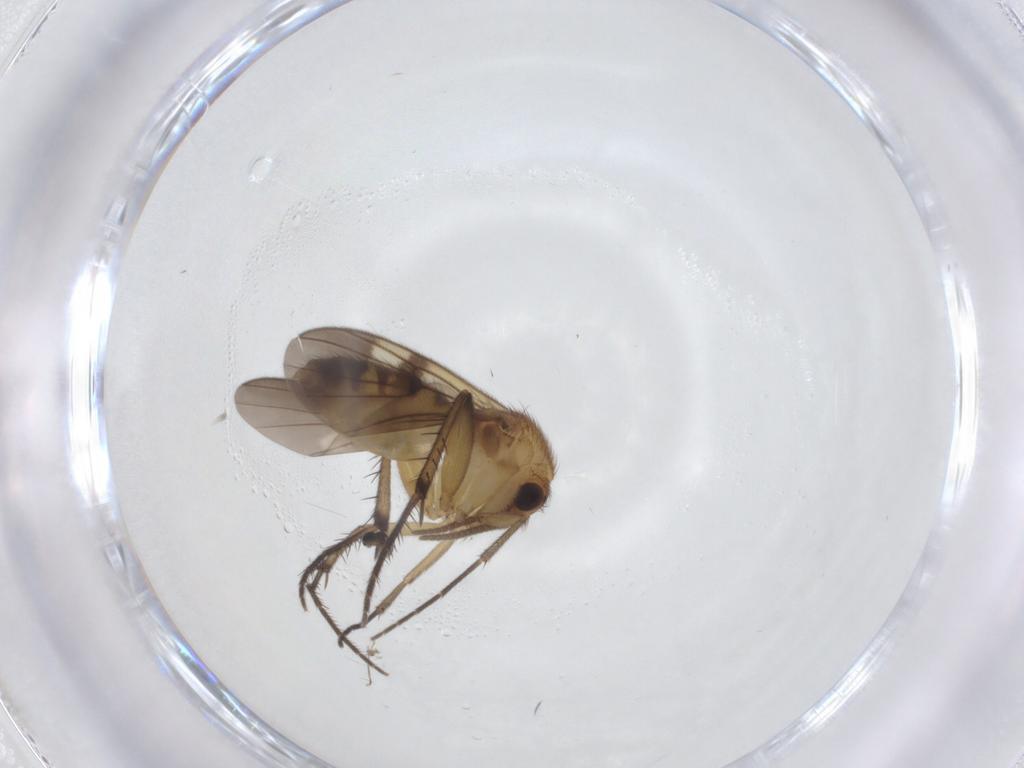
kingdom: Animalia
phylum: Arthropoda
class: Insecta
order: Diptera
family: Mycetophilidae
